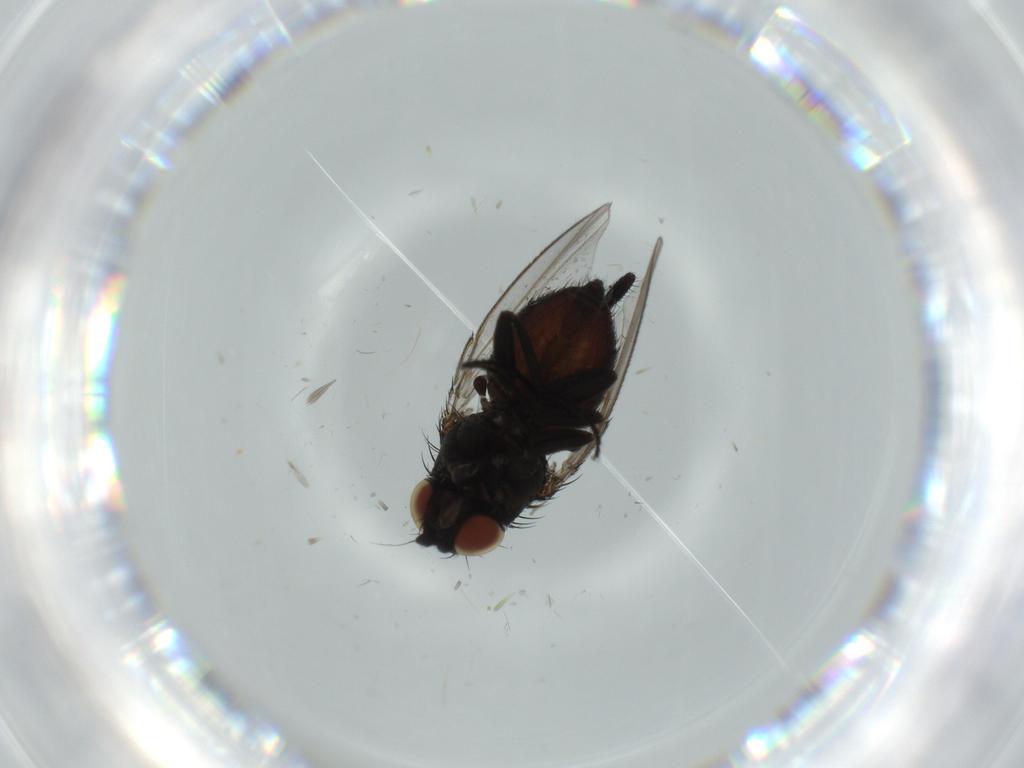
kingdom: Animalia
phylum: Arthropoda
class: Insecta
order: Diptera
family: Milichiidae
